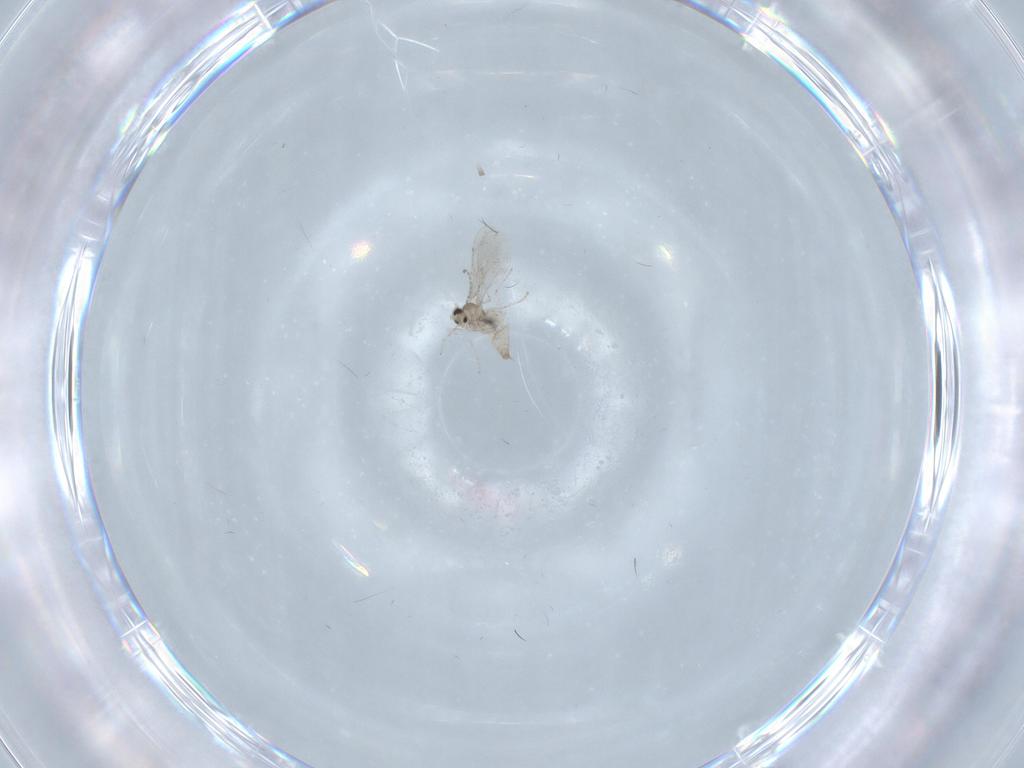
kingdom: Animalia
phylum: Arthropoda
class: Insecta
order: Diptera
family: Cecidomyiidae
